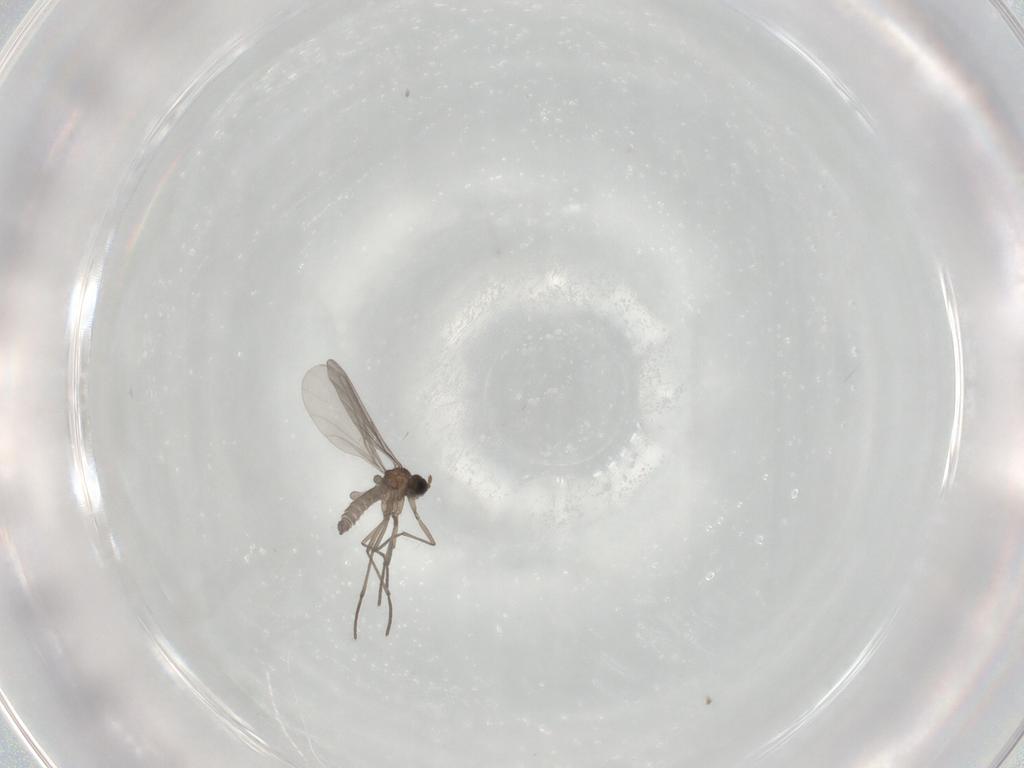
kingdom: Animalia
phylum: Arthropoda
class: Insecta
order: Diptera
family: Sciaridae
